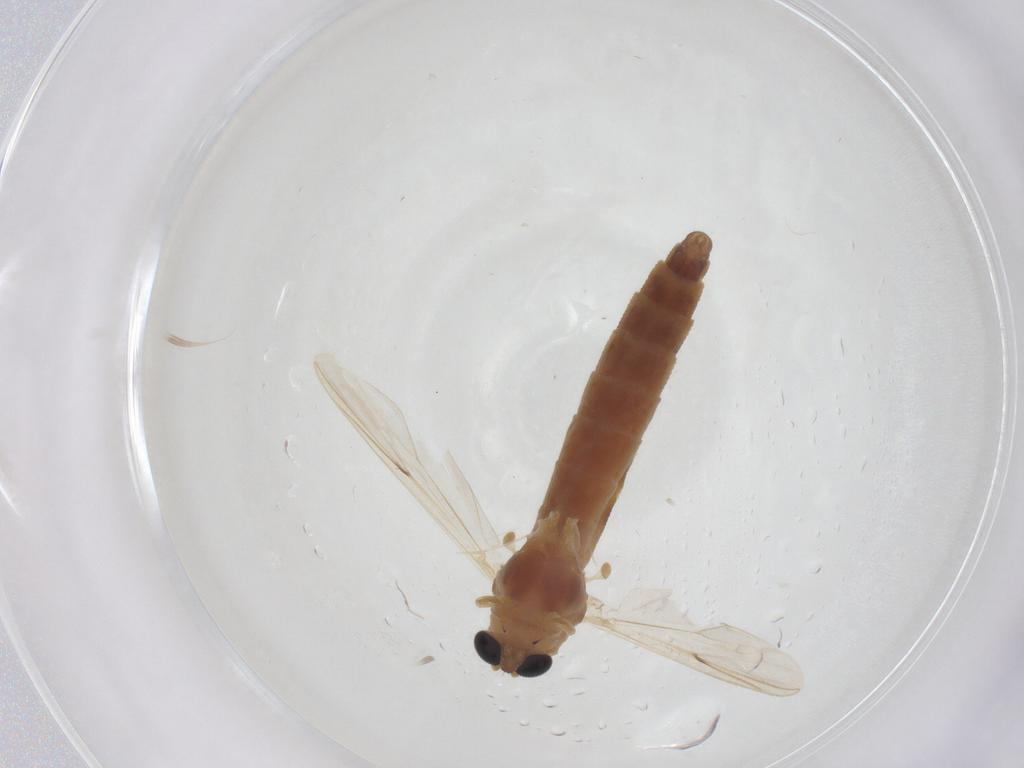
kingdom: Animalia
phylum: Arthropoda
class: Insecta
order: Diptera
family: Chironomidae
